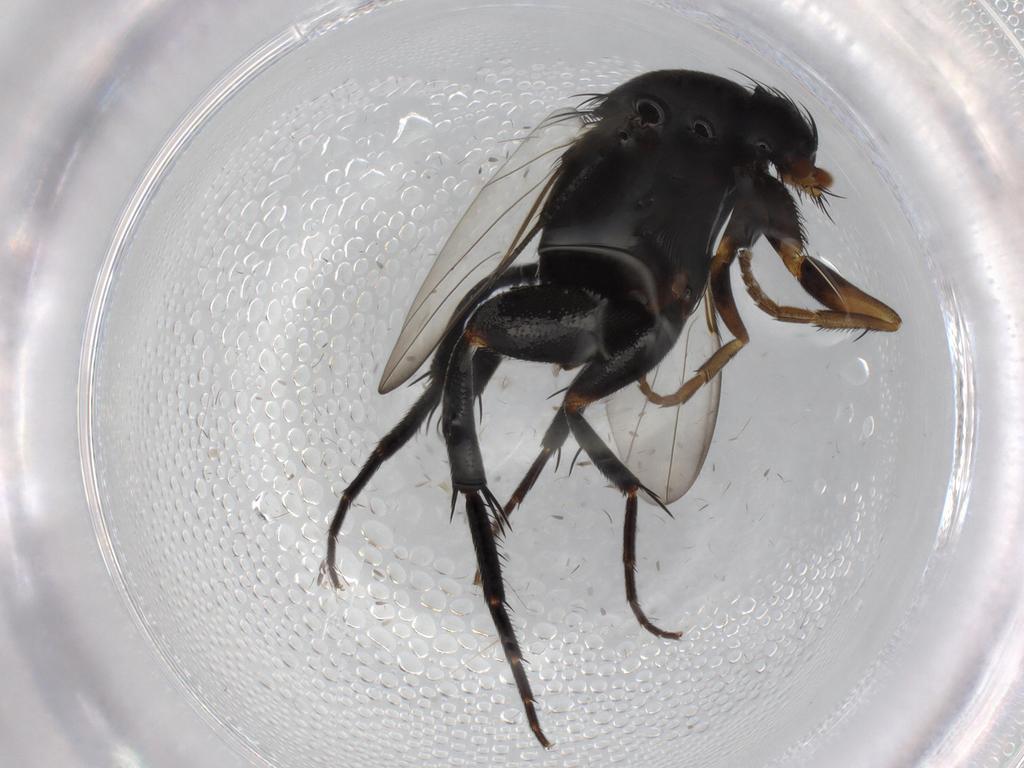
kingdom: Animalia
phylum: Arthropoda
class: Insecta
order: Diptera
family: Phoridae
